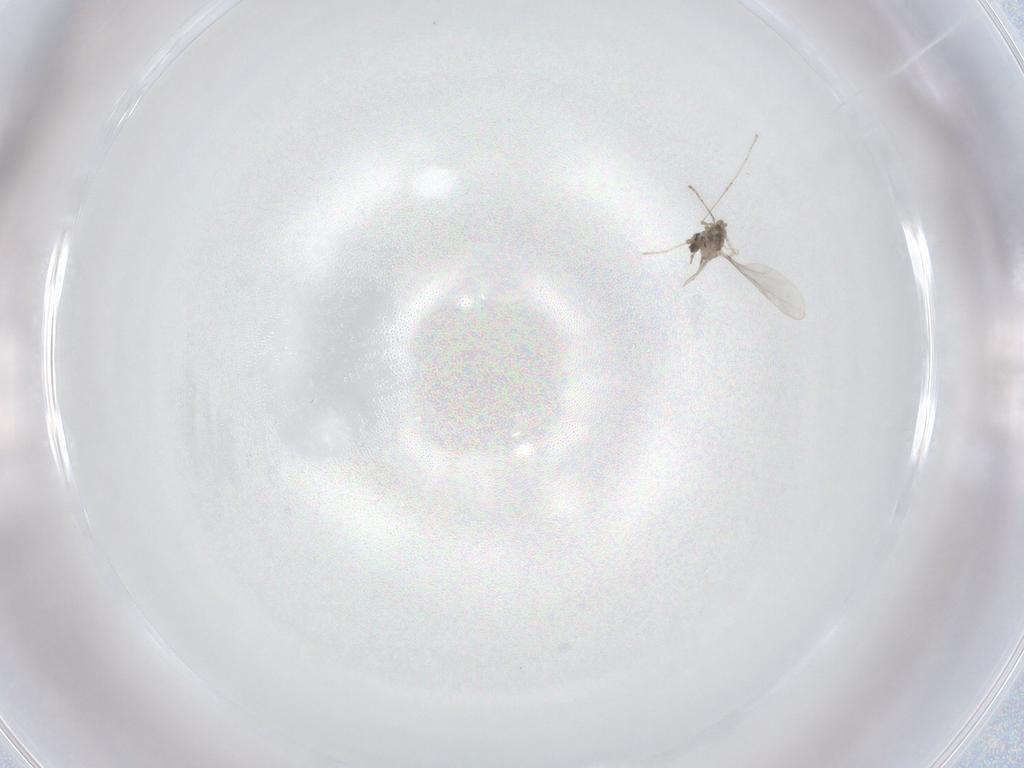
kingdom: Animalia
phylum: Arthropoda
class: Insecta
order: Diptera
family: Cecidomyiidae
